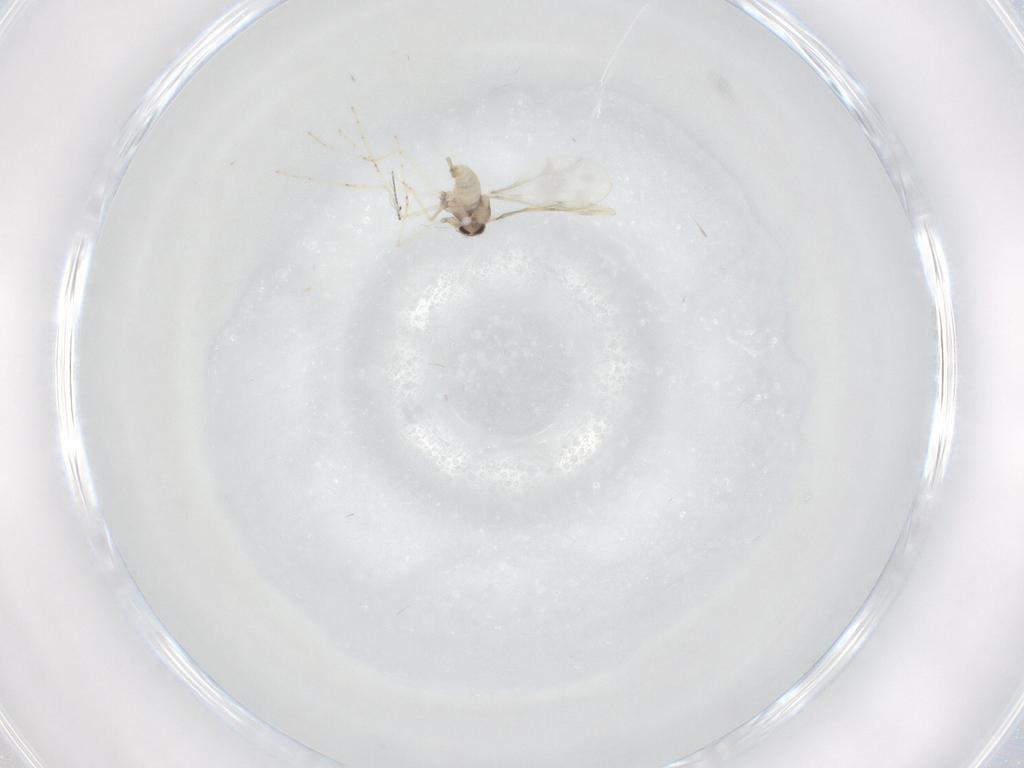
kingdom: Animalia
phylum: Arthropoda
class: Insecta
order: Diptera
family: Cecidomyiidae
